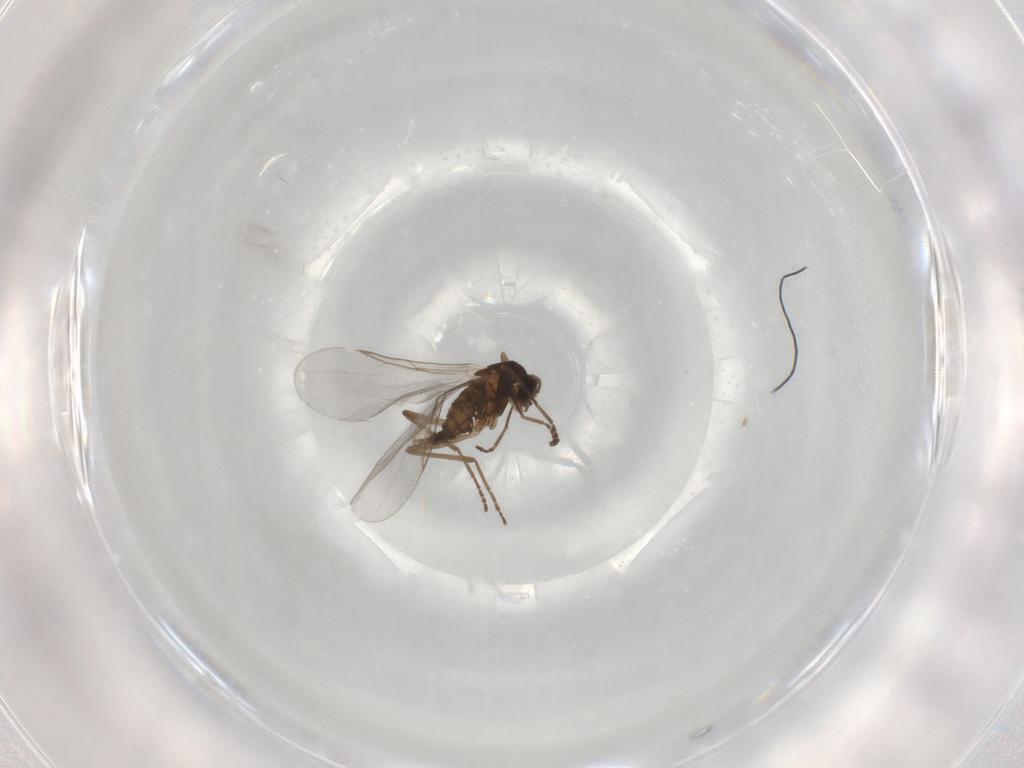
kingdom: Animalia
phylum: Arthropoda
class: Insecta
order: Diptera
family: Cecidomyiidae
